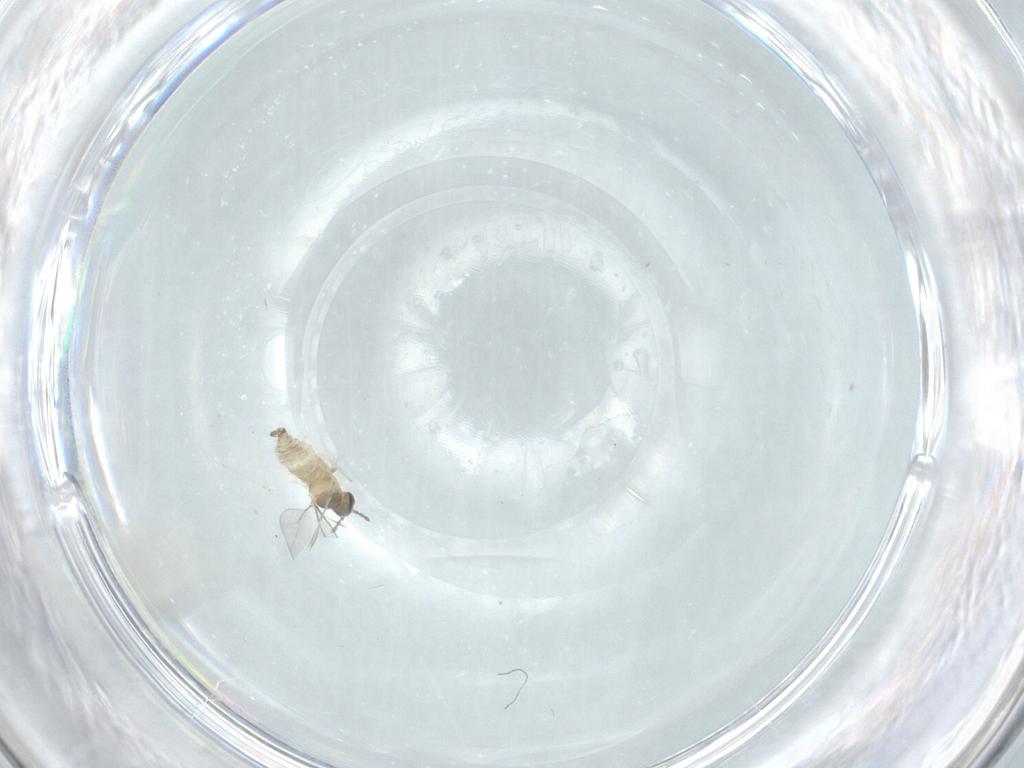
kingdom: Animalia
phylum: Arthropoda
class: Insecta
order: Diptera
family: Cecidomyiidae
